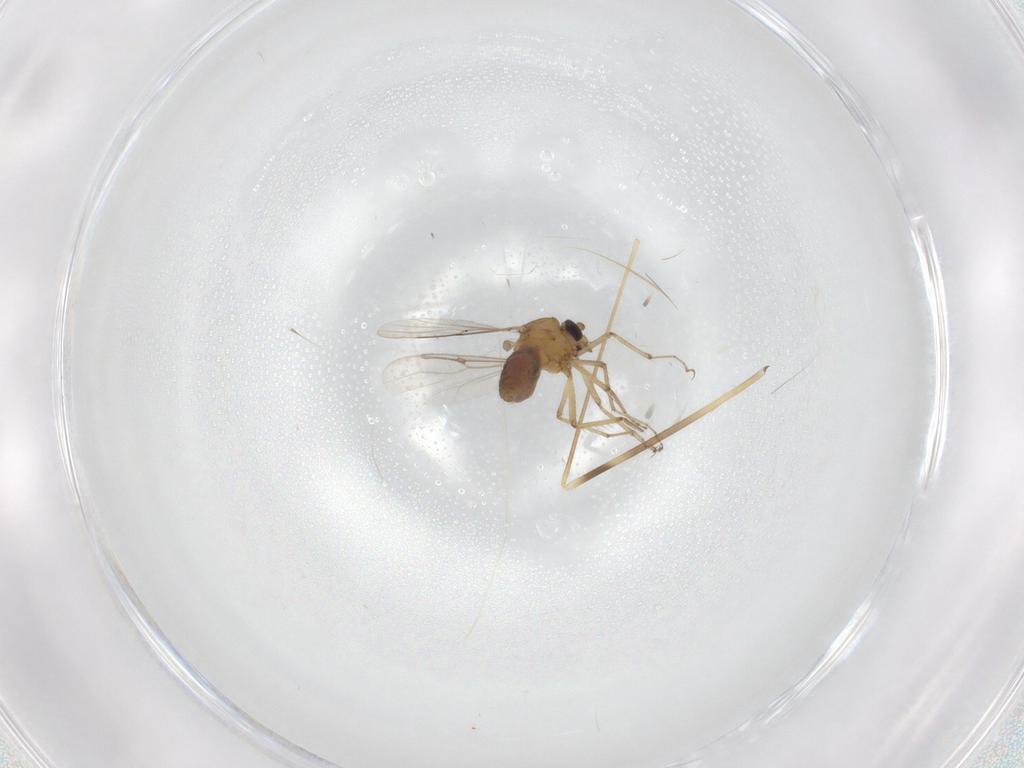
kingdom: Animalia
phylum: Arthropoda
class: Insecta
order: Diptera
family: Limoniidae
